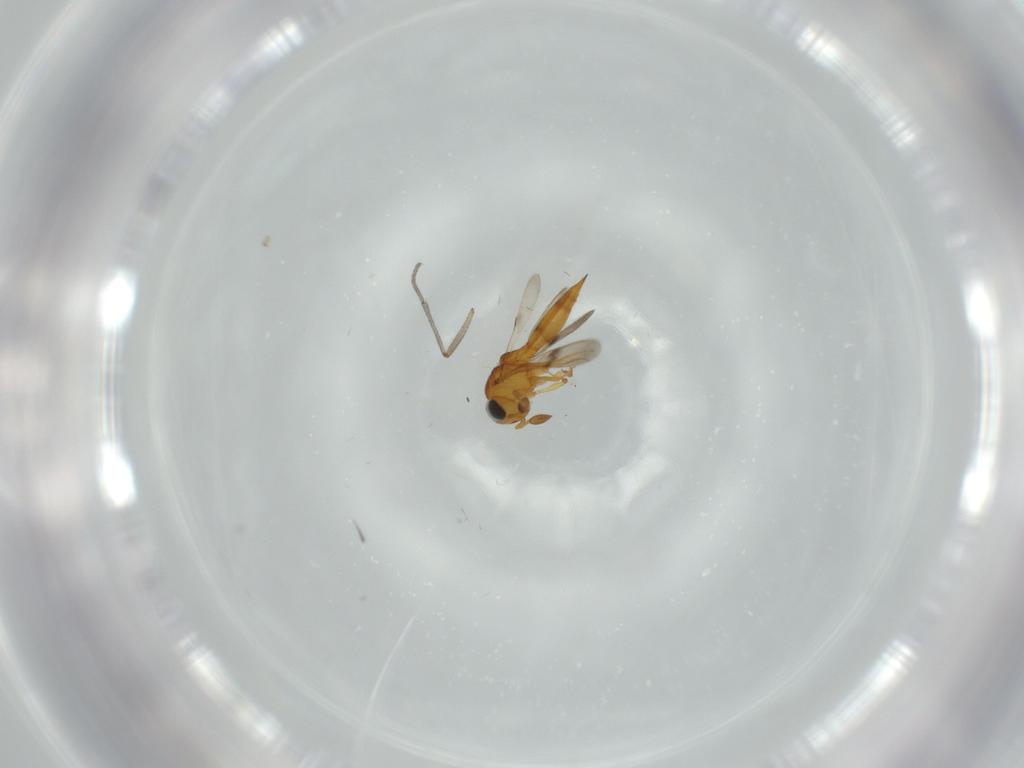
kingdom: Animalia
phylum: Arthropoda
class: Insecta
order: Hymenoptera
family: Scelionidae
